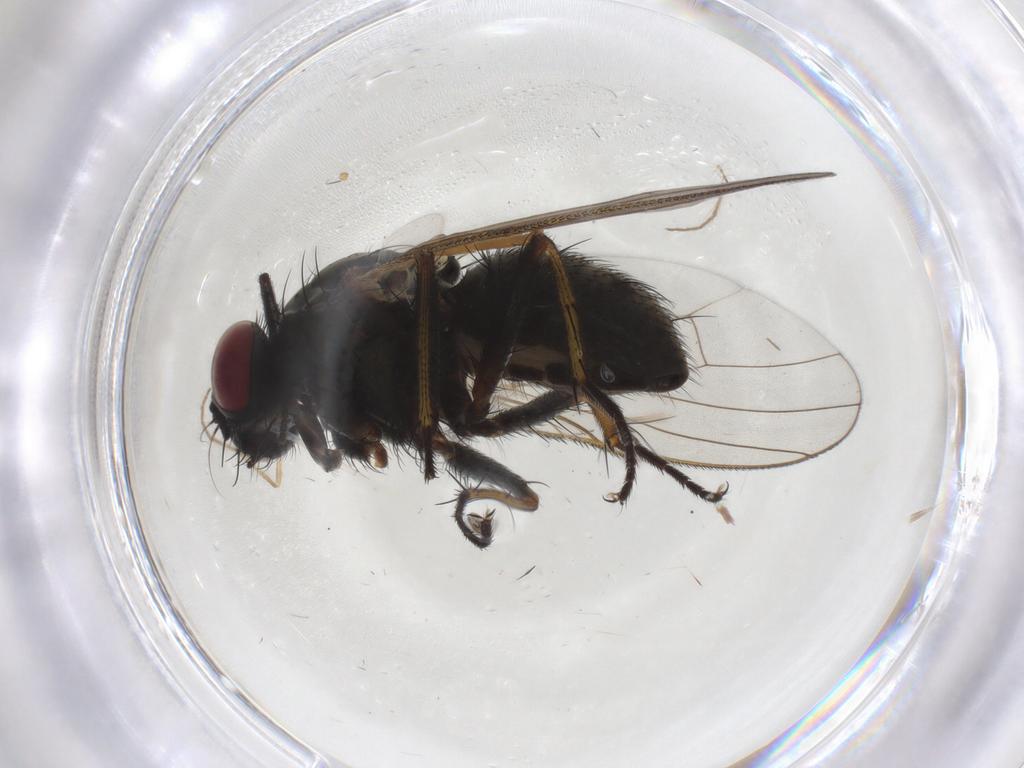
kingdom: Animalia
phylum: Arthropoda
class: Insecta
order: Diptera
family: Muscidae
